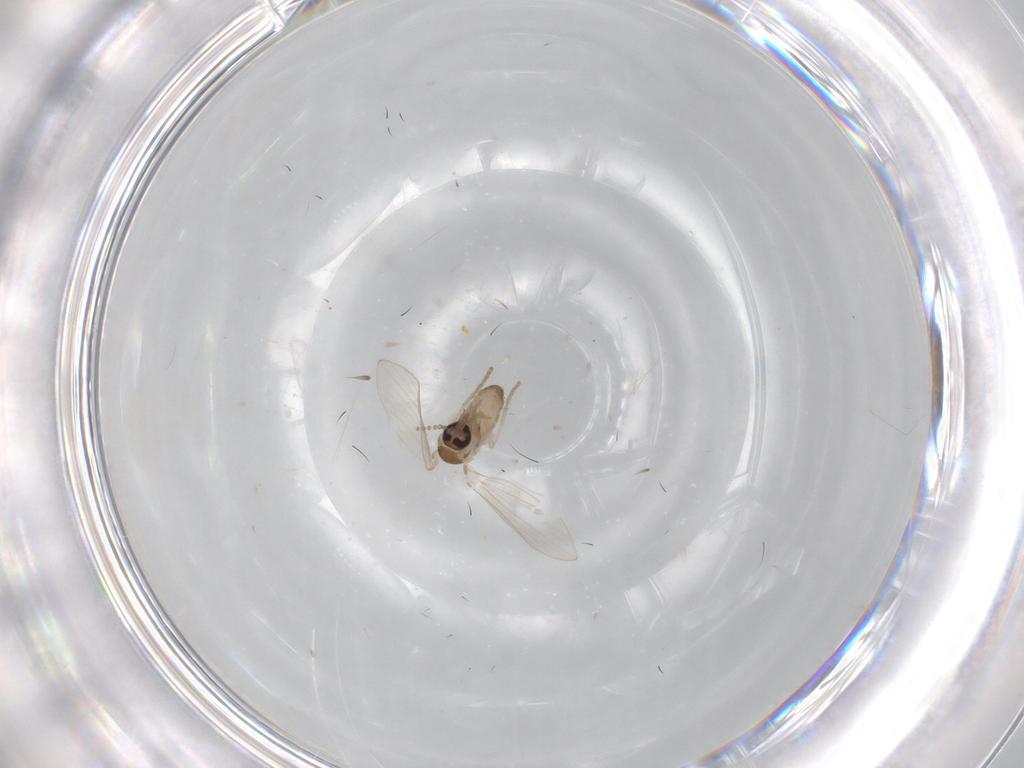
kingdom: Animalia
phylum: Arthropoda
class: Insecta
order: Diptera
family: Psychodidae
